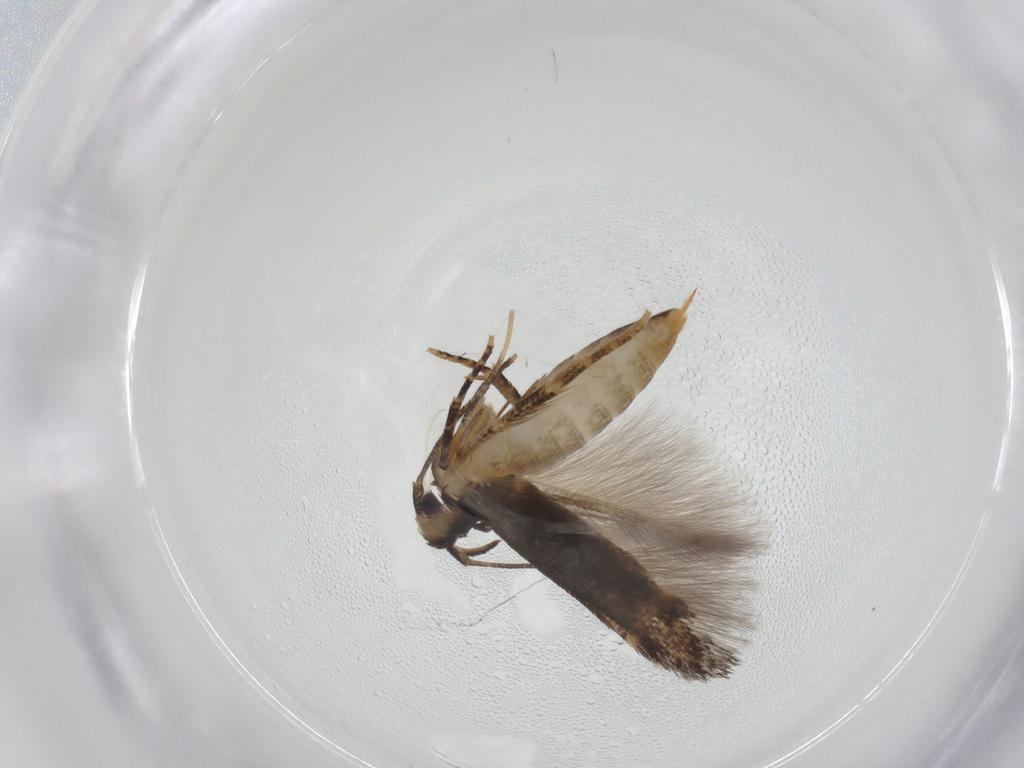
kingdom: Animalia
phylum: Arthropoda
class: Insecta
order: Lepidoptera
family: Cosmopterigidae
